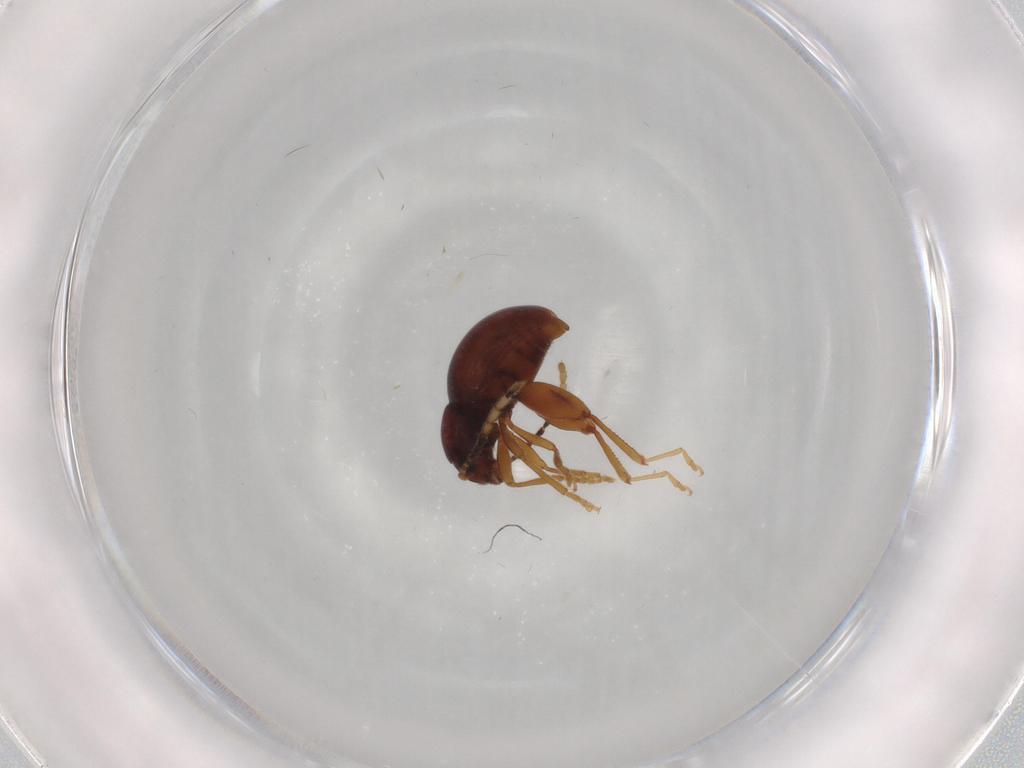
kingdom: Animalia
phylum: Arthropoda
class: Insecta
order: Coleoptera
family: Chrysomelidae
